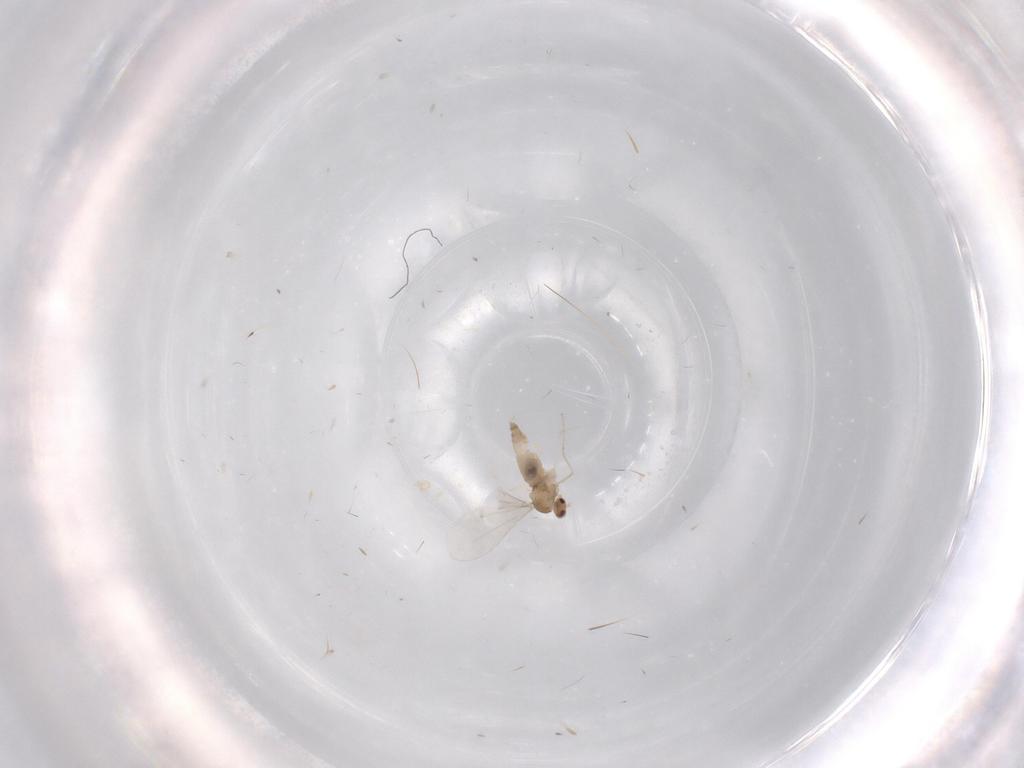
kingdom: Animalia
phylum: Arthropoda
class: Insecta
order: Diptera
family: Cecidomyiidae
